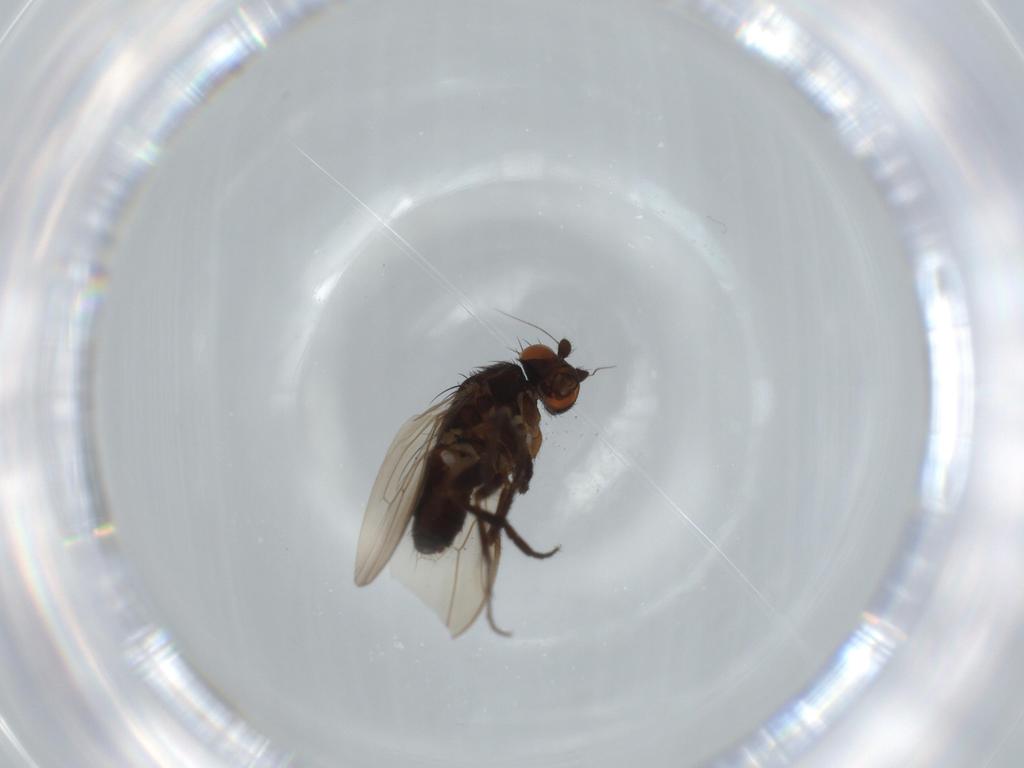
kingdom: Animalia
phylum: Arthropoda
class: Insecta
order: Diptera
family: Sphaeroceridae
